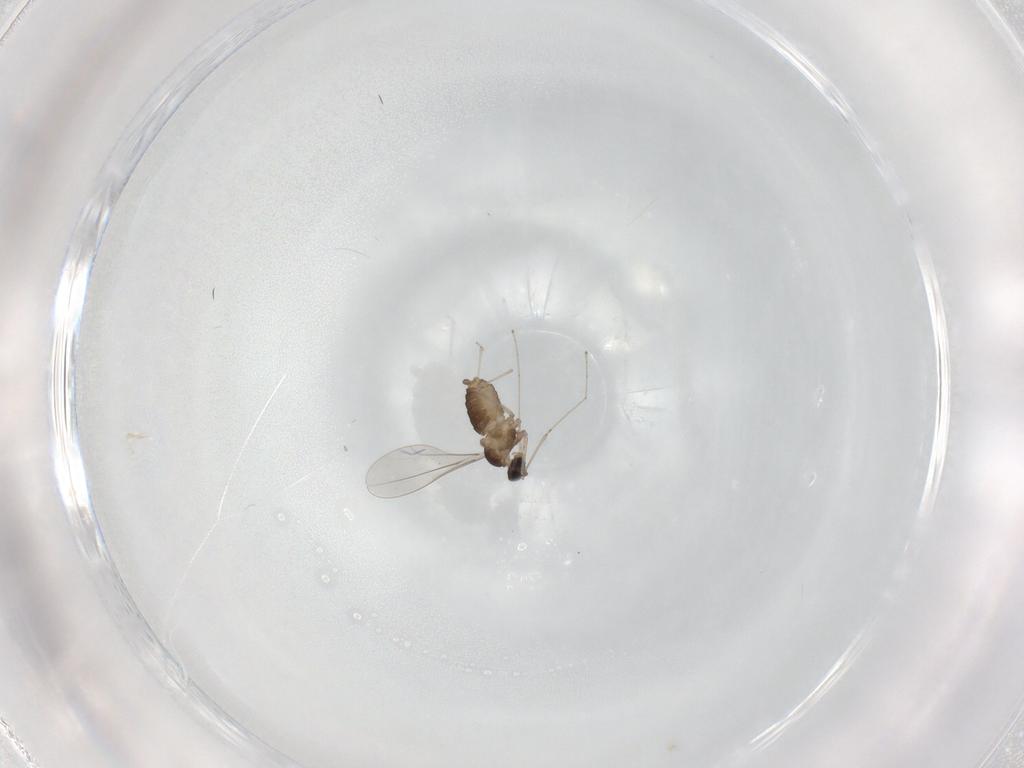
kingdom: Animalia
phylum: Arthropoda
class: Insecta
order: Diptera
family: Cecidomyiidae
